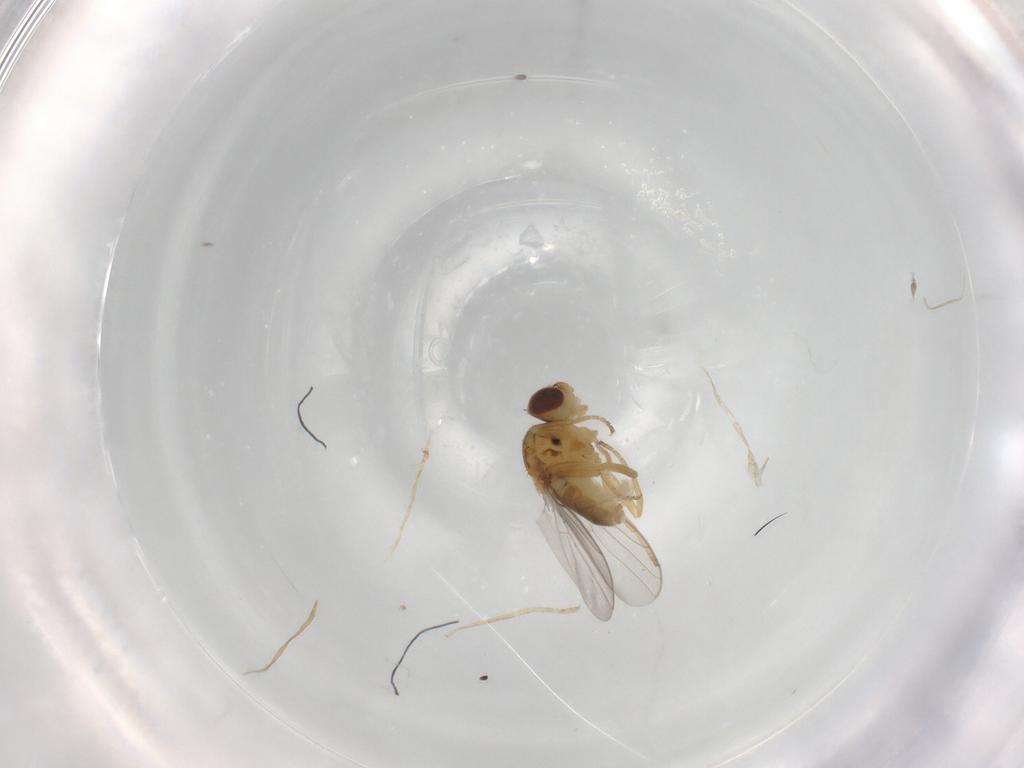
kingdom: Animalia
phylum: Arthropoda
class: Insecta
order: Diptera
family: Chloropidae
